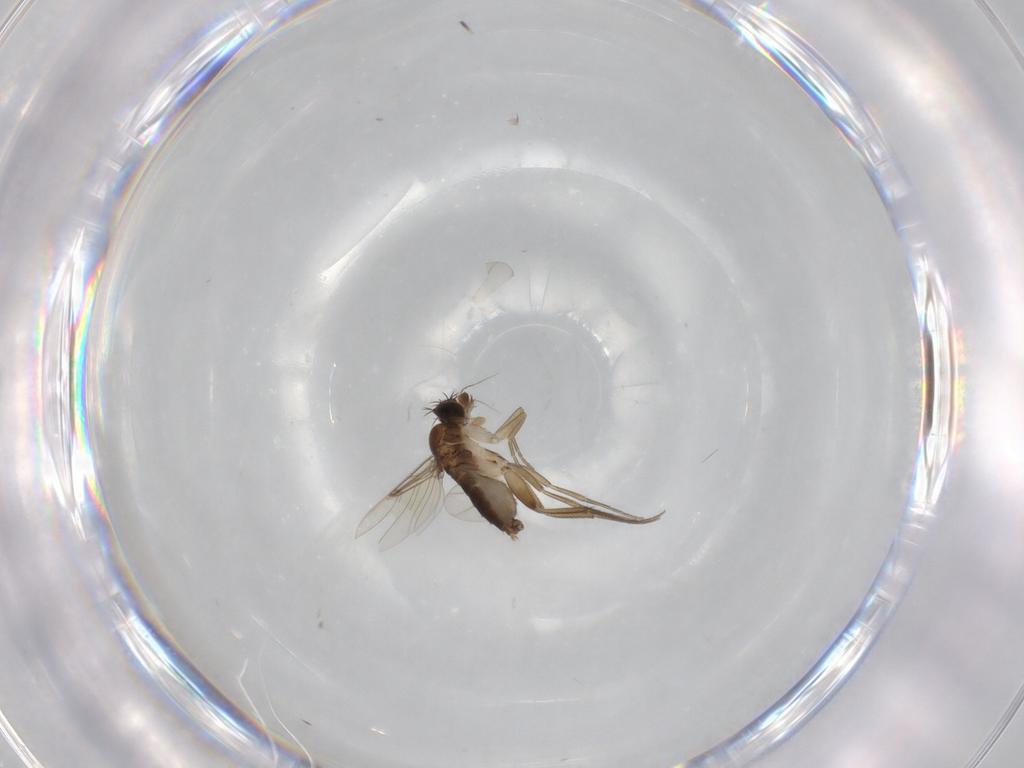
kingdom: Animalia
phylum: Arthropoda
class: Insecta
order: Diptera
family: Phoridae
